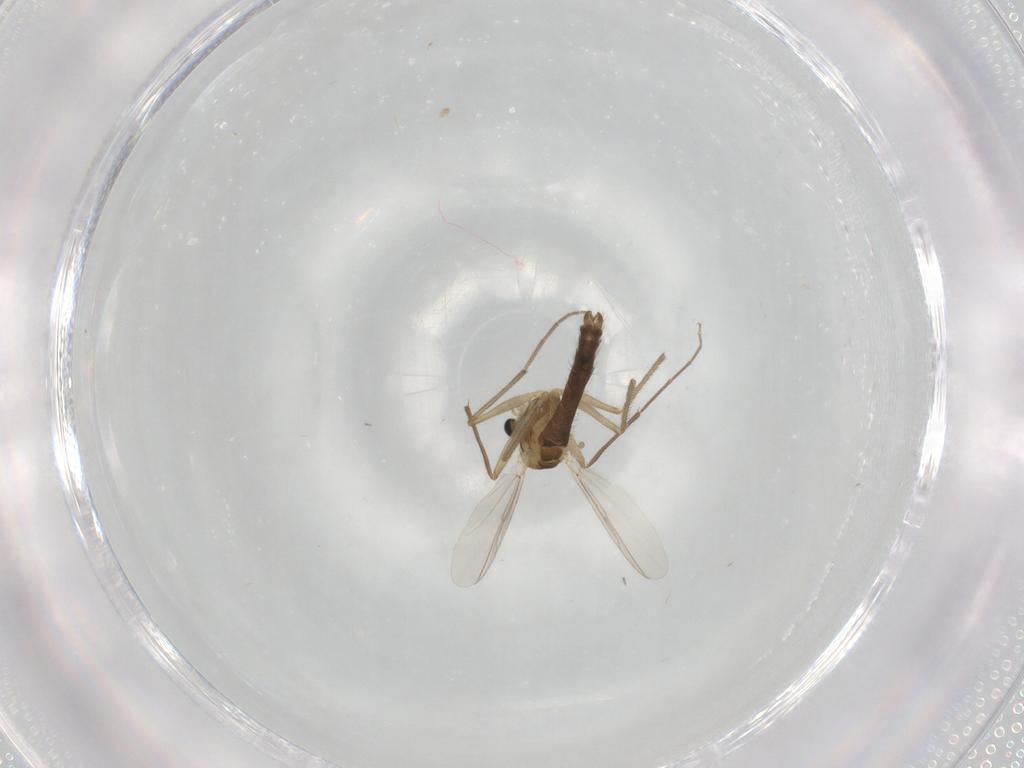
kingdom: Animalia
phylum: Arthropoda
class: Insecta
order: Diptera
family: Chironomidae
